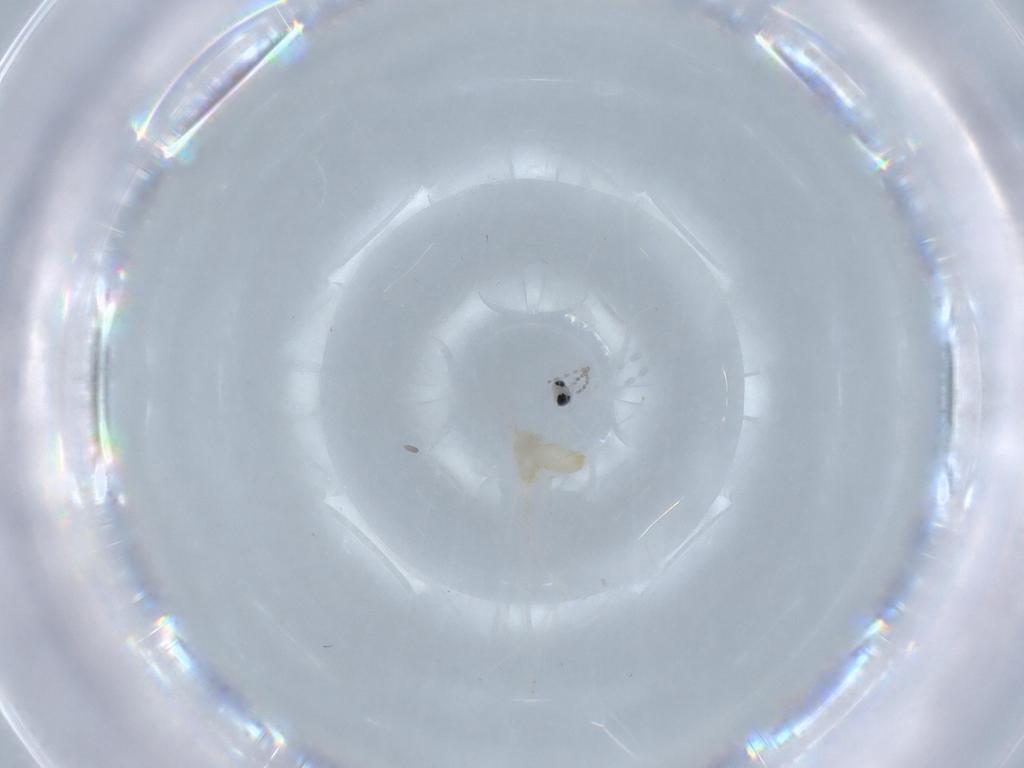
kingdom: Animalia
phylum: Arthropoda
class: Insecta
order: Diptera
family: Cecidomyiidae
